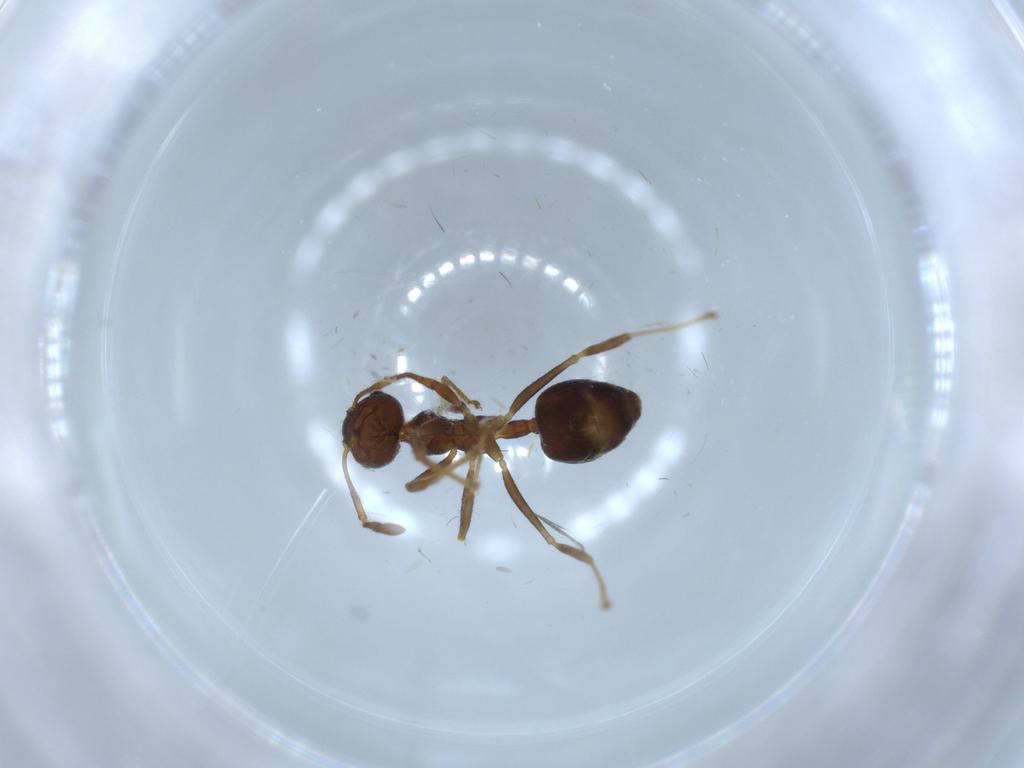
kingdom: Animalia
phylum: Arthropoda
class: Insecta
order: Hymenoptera
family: Formicidae
